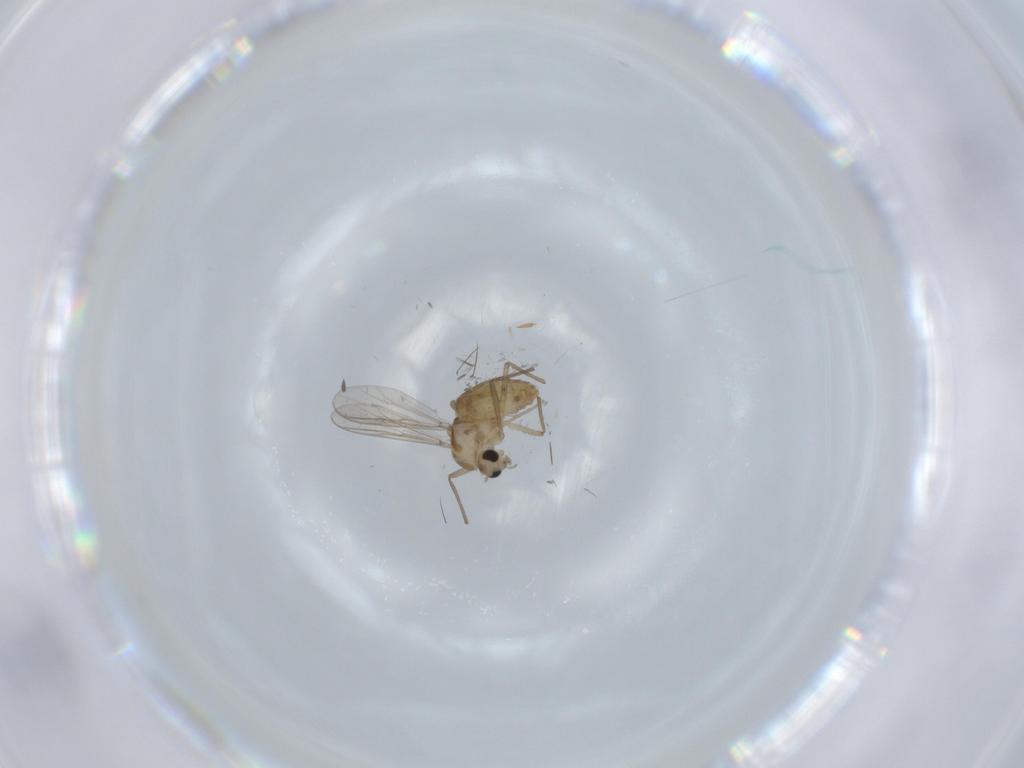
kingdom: Animalia
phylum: Arthropoda
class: Insecta
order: Diptera
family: Chironomidae
